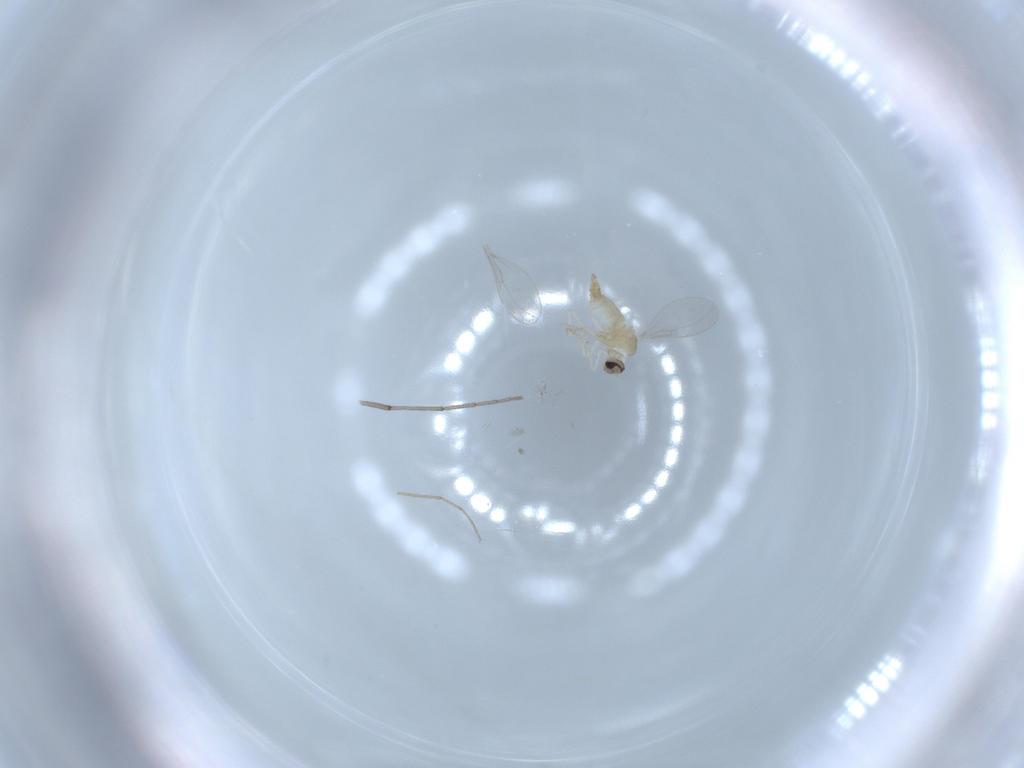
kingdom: Animalia
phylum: Arthropoda
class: Insecta
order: Diptera
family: Cecidomyiidae
